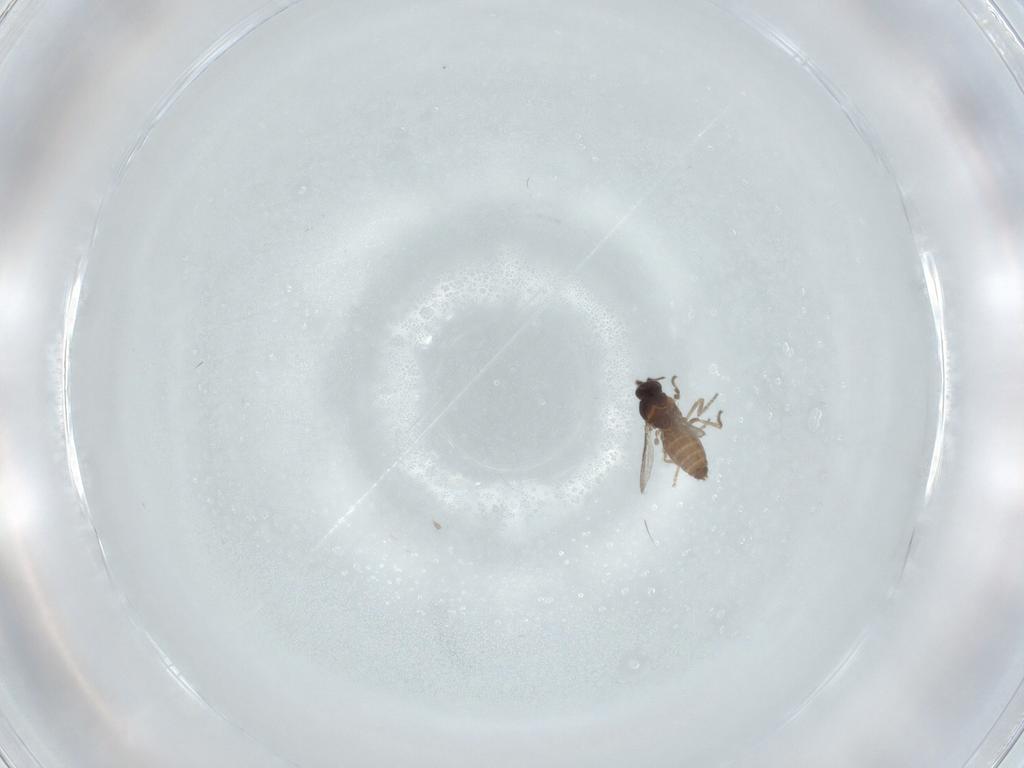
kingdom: Animalia
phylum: Arthropoda
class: Insecta
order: Diptera
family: Ceratopogonidae
